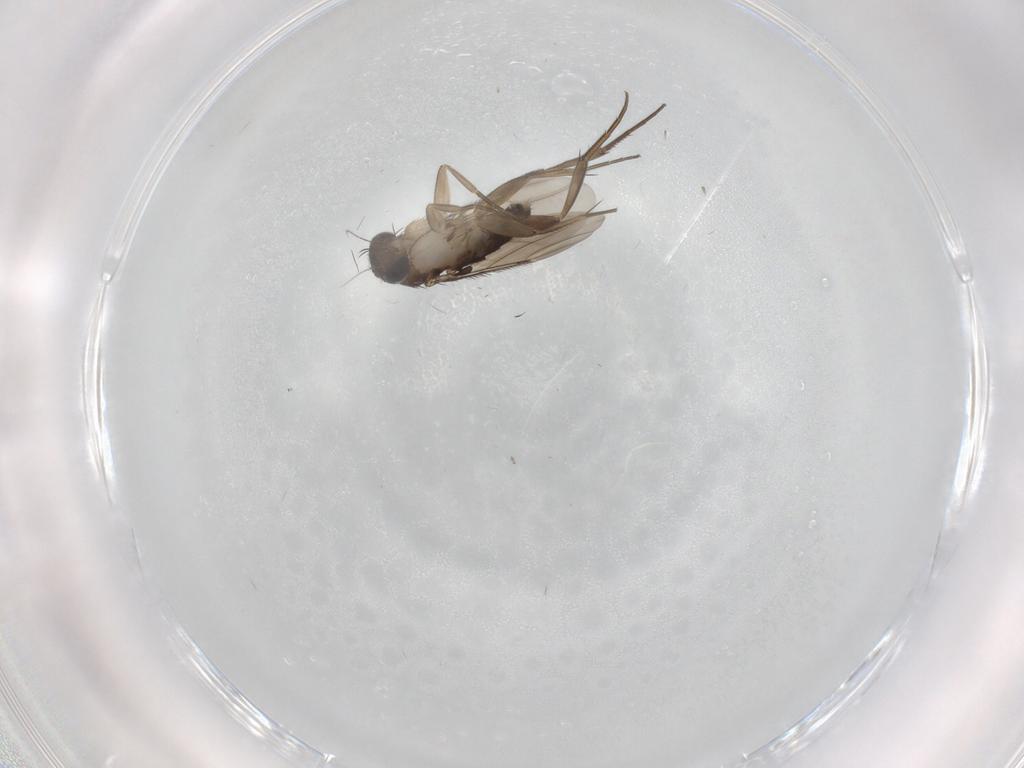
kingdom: Animalia
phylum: Arthropoda
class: Insecta
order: Diptera
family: Phoridae
